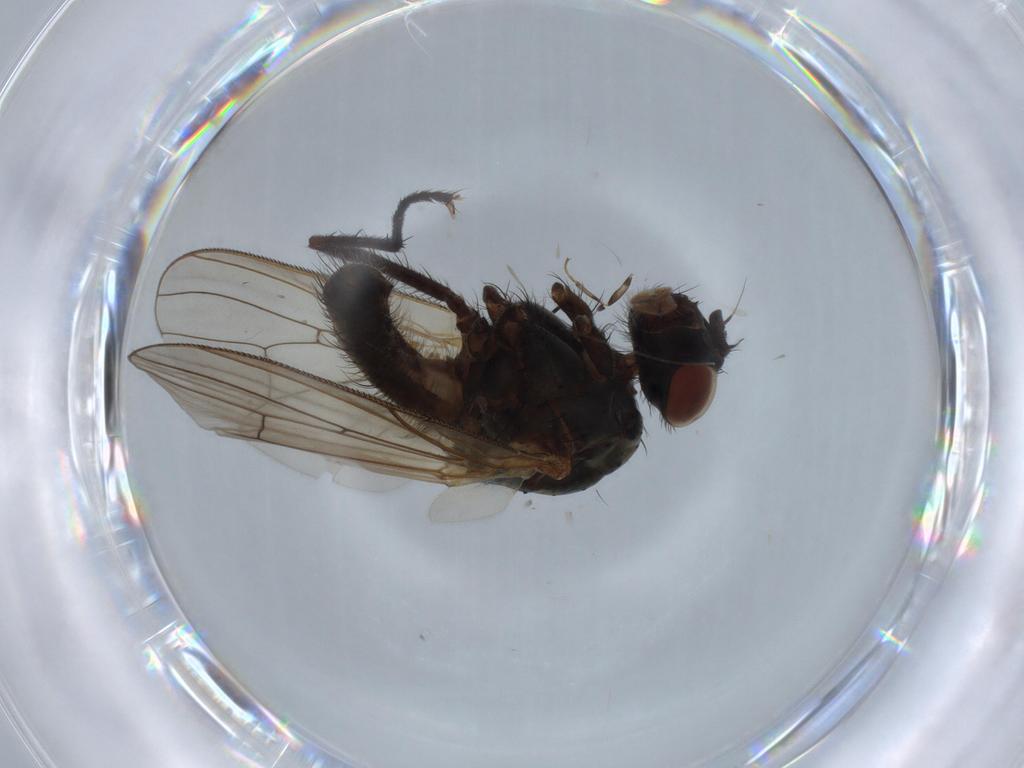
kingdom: Animalia
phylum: Arthropoda
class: Insecta
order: Diptera
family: Anthomyiidae
